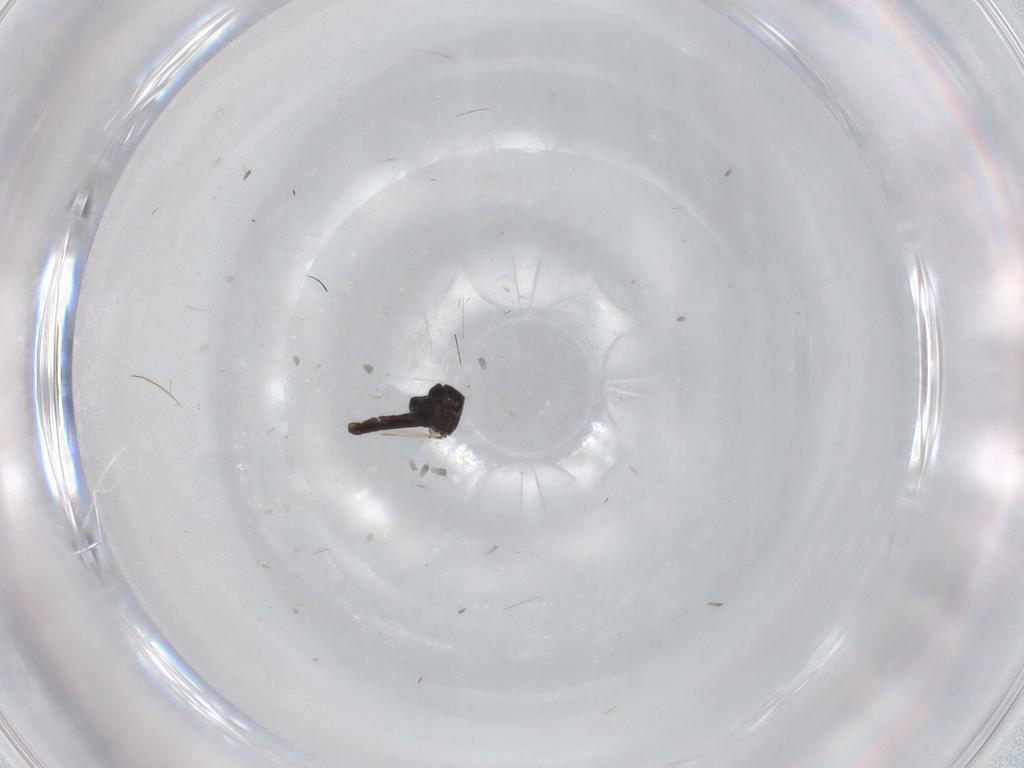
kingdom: Animalia
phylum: Arthropoda
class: Insecta
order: Diptera
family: Ceratopogonidae
